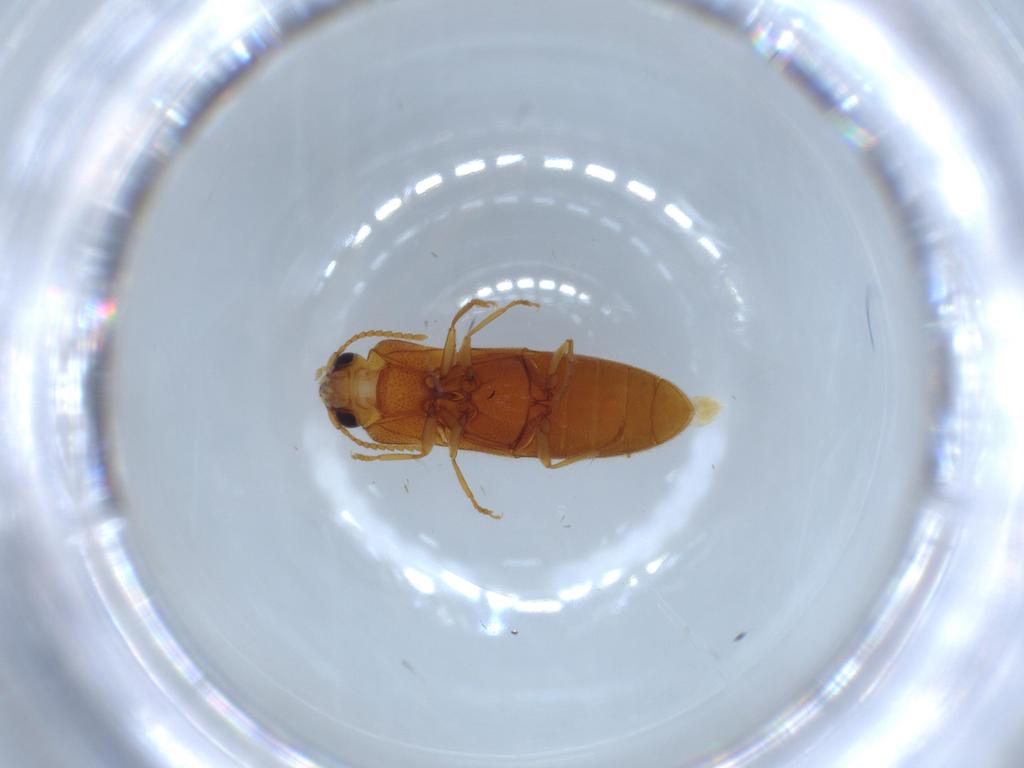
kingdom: Animalia
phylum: Arthropoda
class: Insecta
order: Coleoptera
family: Elateridae
